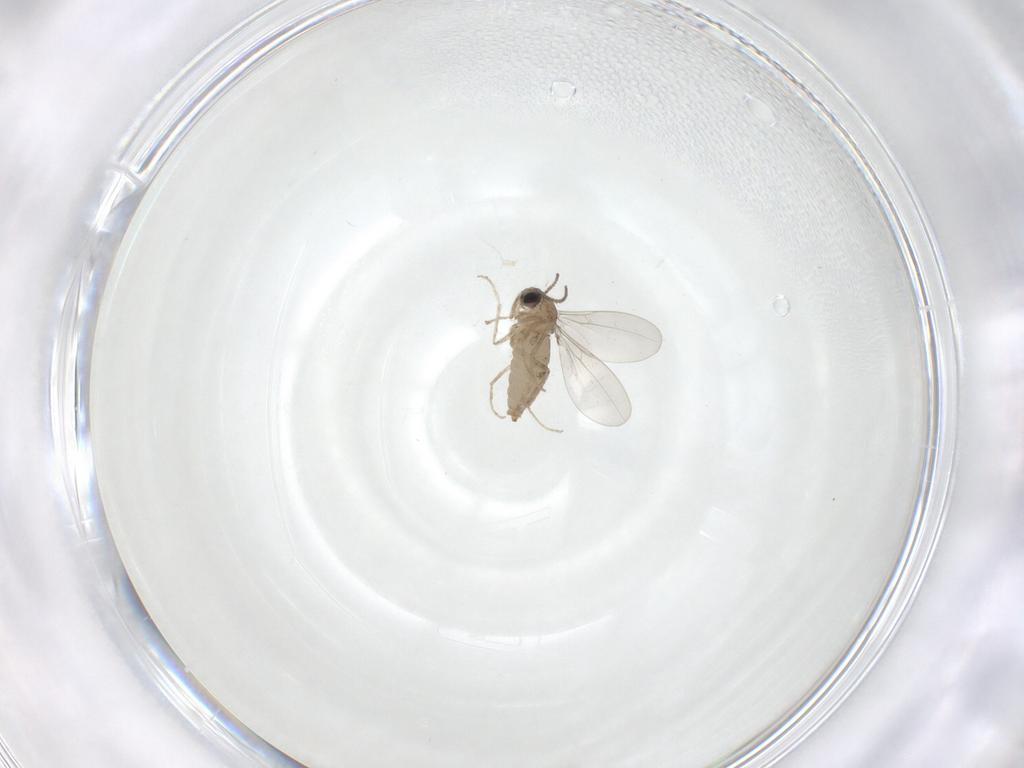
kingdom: Animalia
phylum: Arthropoda
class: Insecta
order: Diptera
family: Cecidomyiidae
